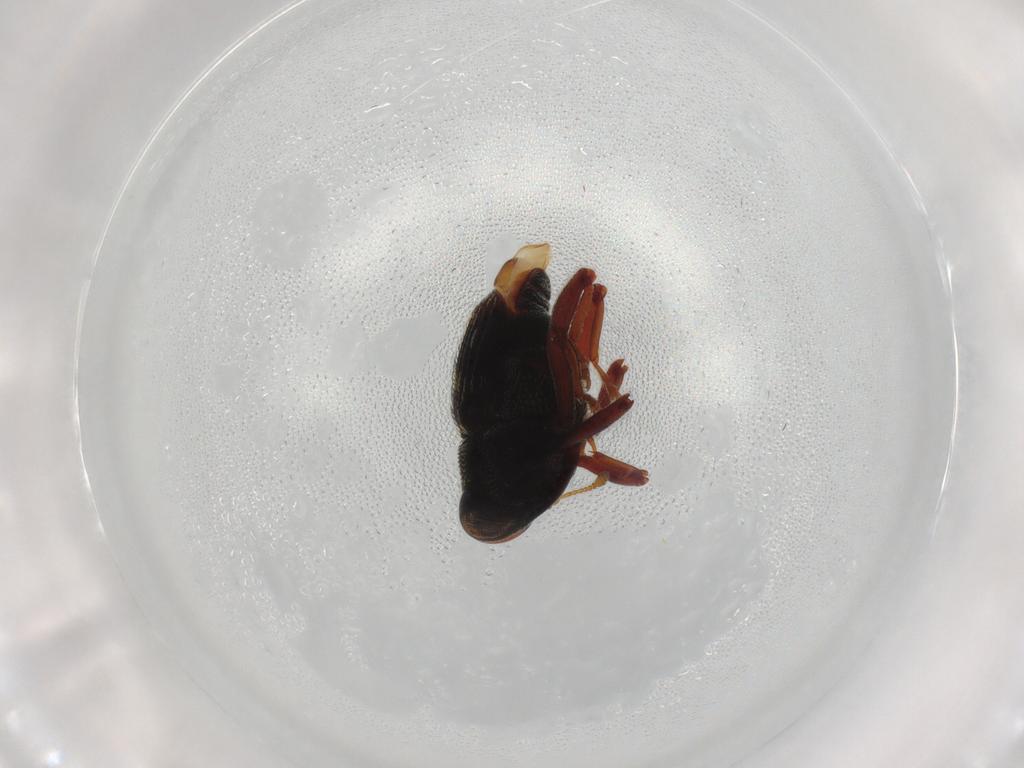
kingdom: Animalia
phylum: Arthropoda
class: Insecta
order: Coleoptera
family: Curculionidae
